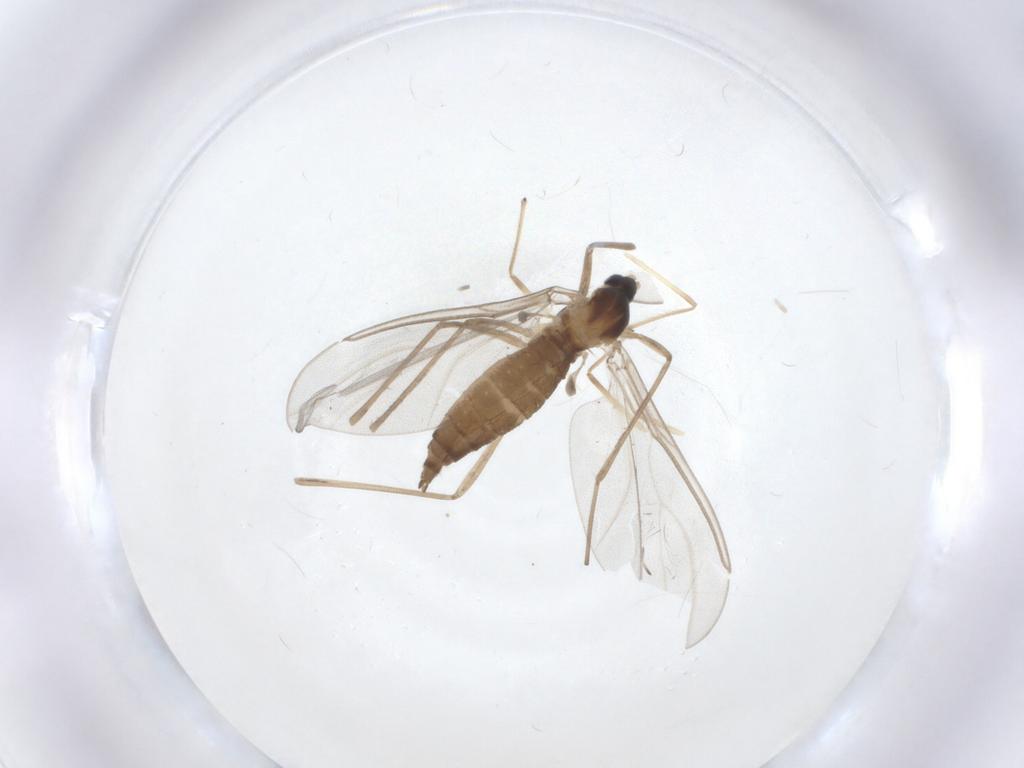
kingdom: Animalia
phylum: Arthropoda
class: Insecta
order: Diptera
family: Cecidomyiidae
